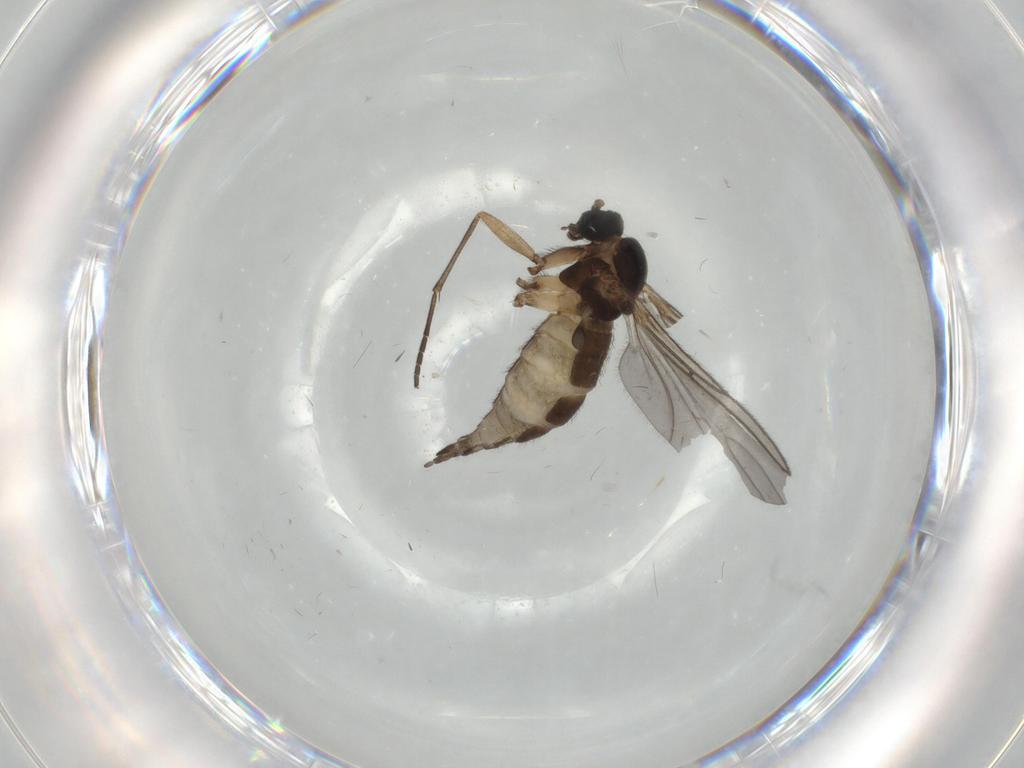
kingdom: Animalia
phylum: Arthropoda
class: Insecta
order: Diptera
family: Sciaridae
